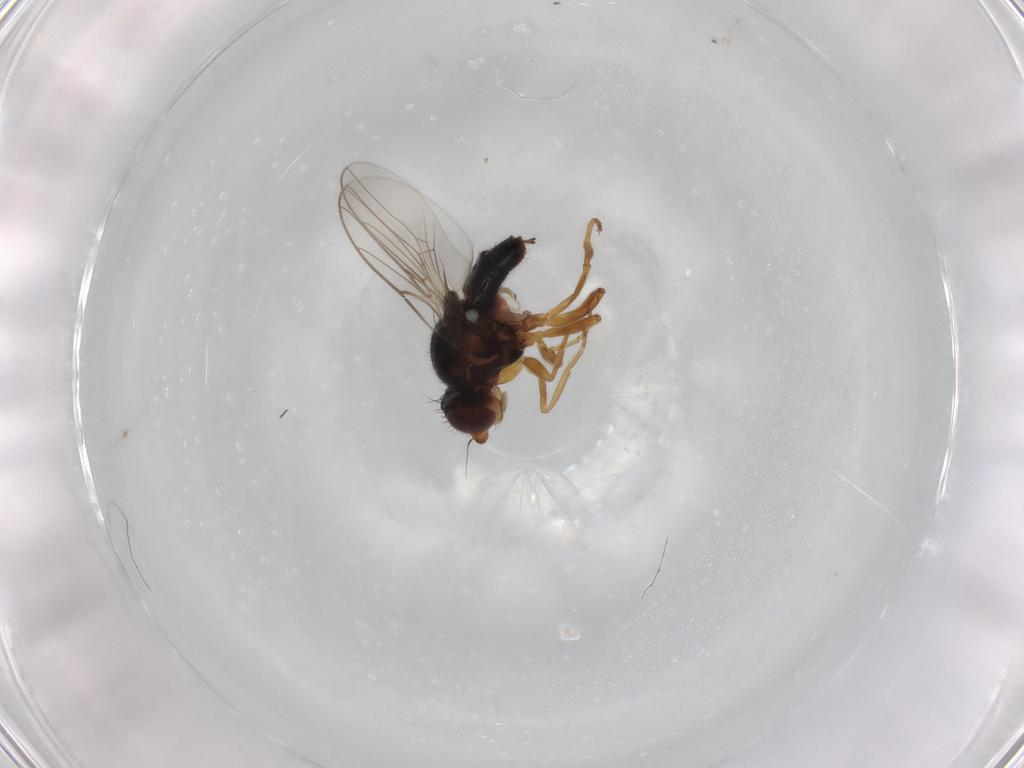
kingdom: Animalia
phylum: Arthropoda
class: Insecta
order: Diptera
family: Chloropidae
